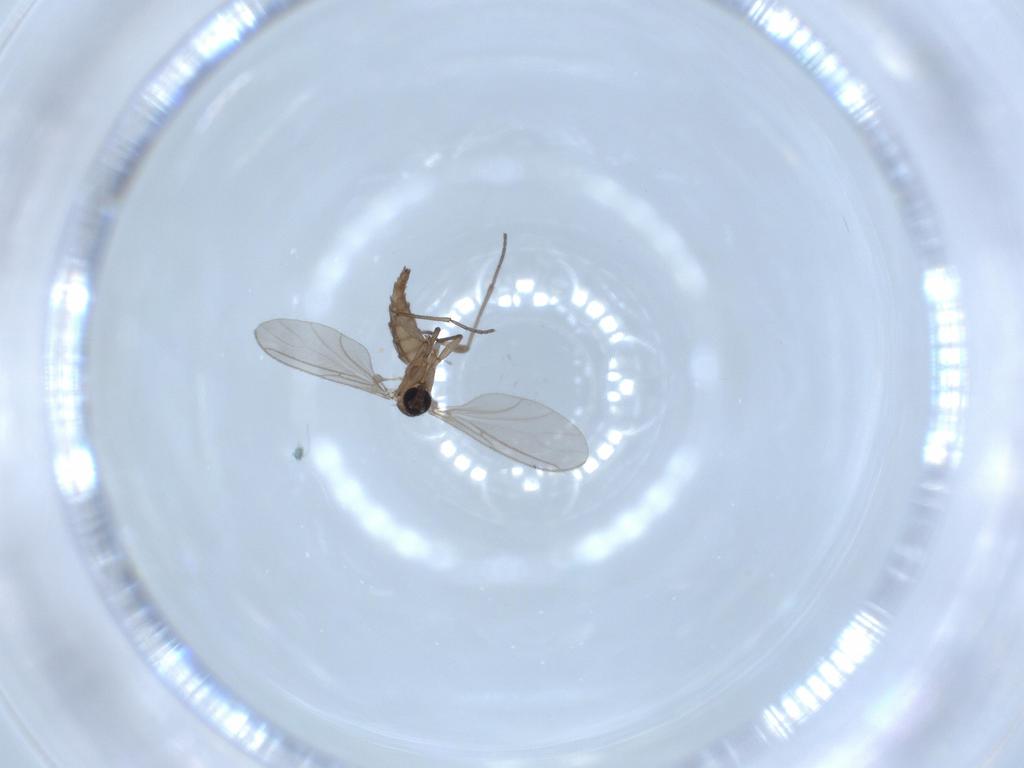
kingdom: Animalia
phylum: Arthropoda
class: Insecta
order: Diptera
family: Sciaridae
